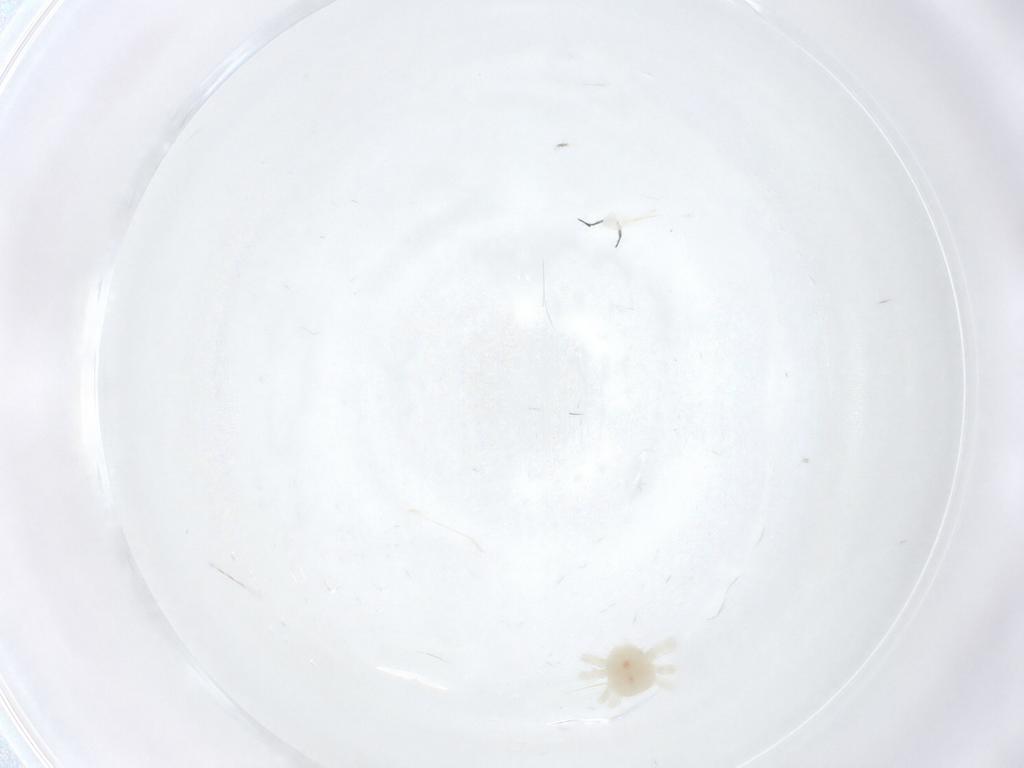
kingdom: Animalia
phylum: Arthropoda
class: Arachnida
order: Trombidiformes
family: Anystidae
